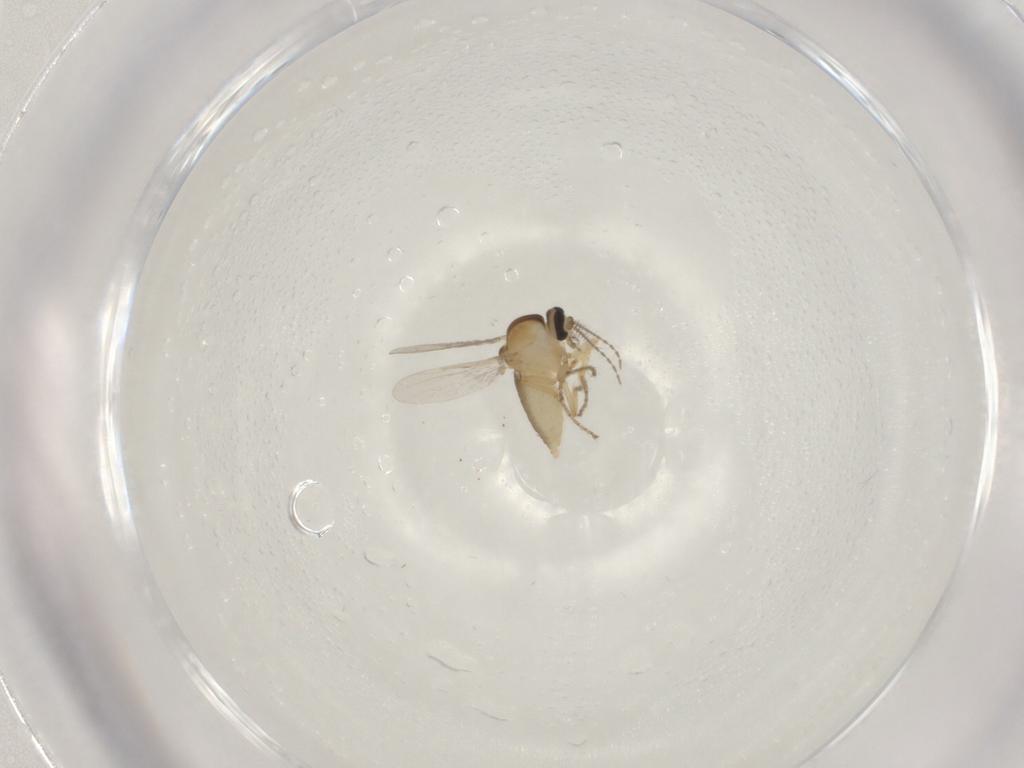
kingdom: Animalia
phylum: Arthropoda
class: Insecta
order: Diptera
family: Ceratopogonidae
